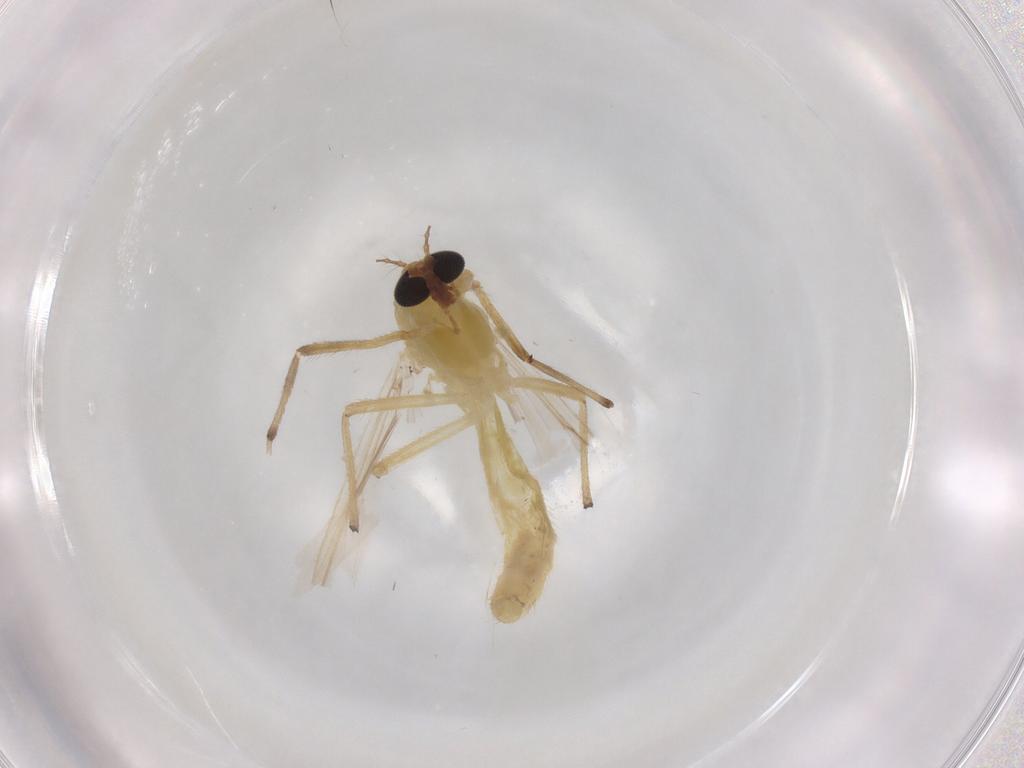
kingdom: Animalia
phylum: Arthropoda
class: Insecta
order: Diptera
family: Chironomidae
